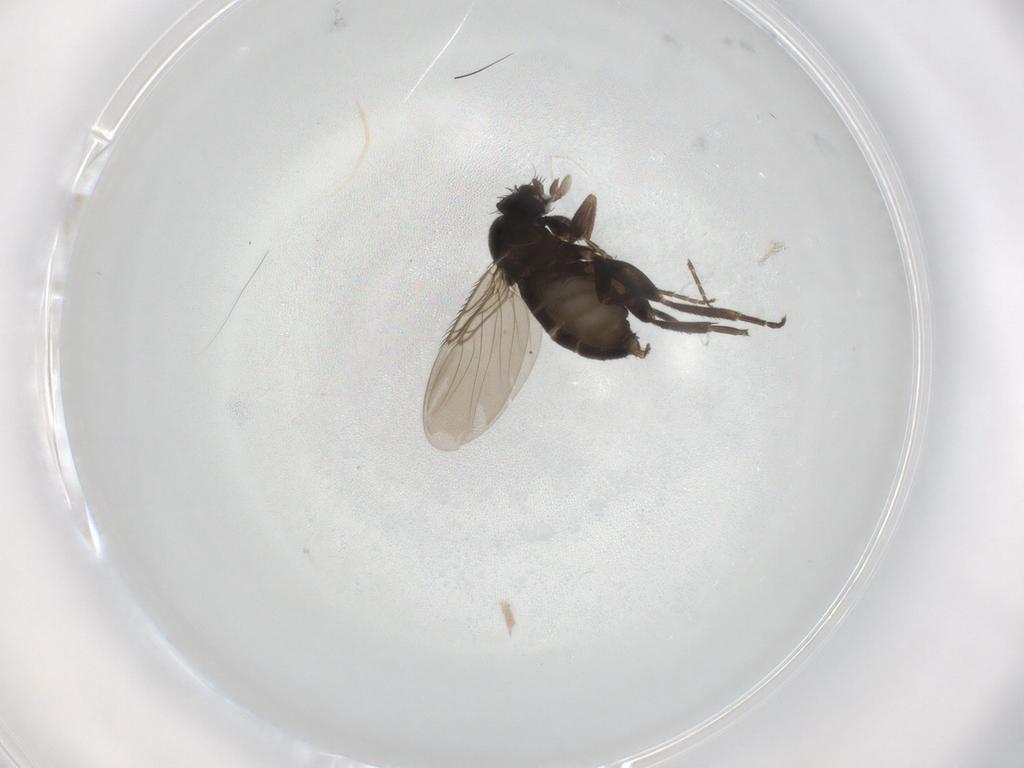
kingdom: Animalia
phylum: Arthropoda
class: Insecta
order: Diptera
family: Phoridae
